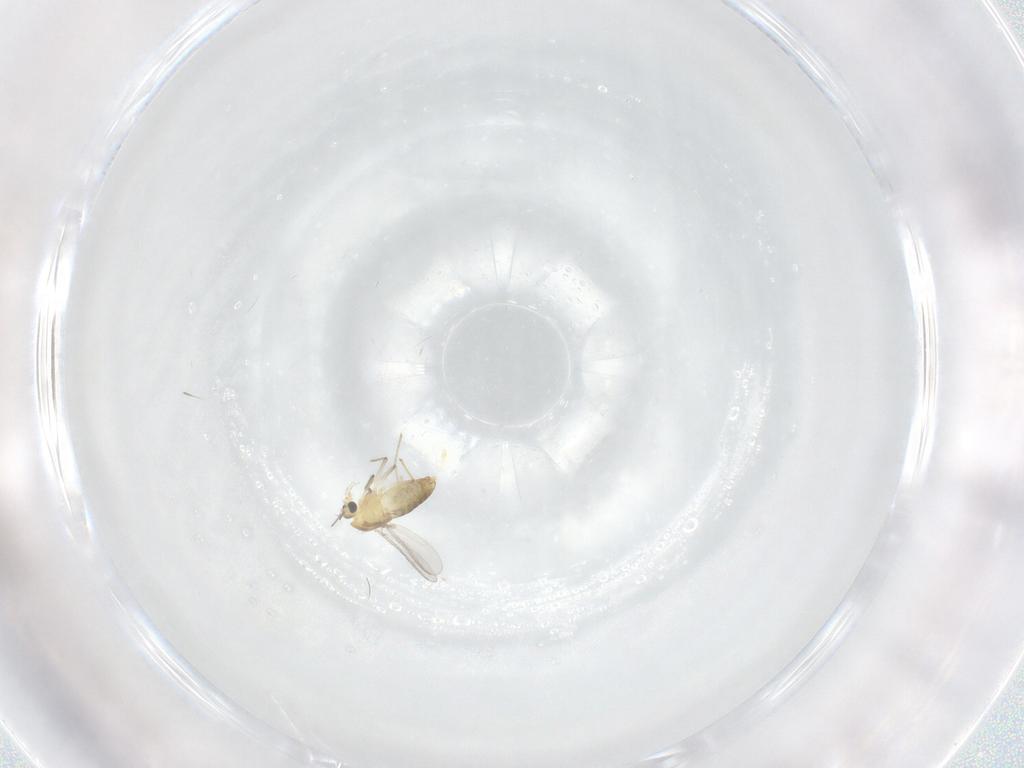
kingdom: Animalia
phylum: Arthropoda
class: Insecta
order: Diptera
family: Chironomidae
